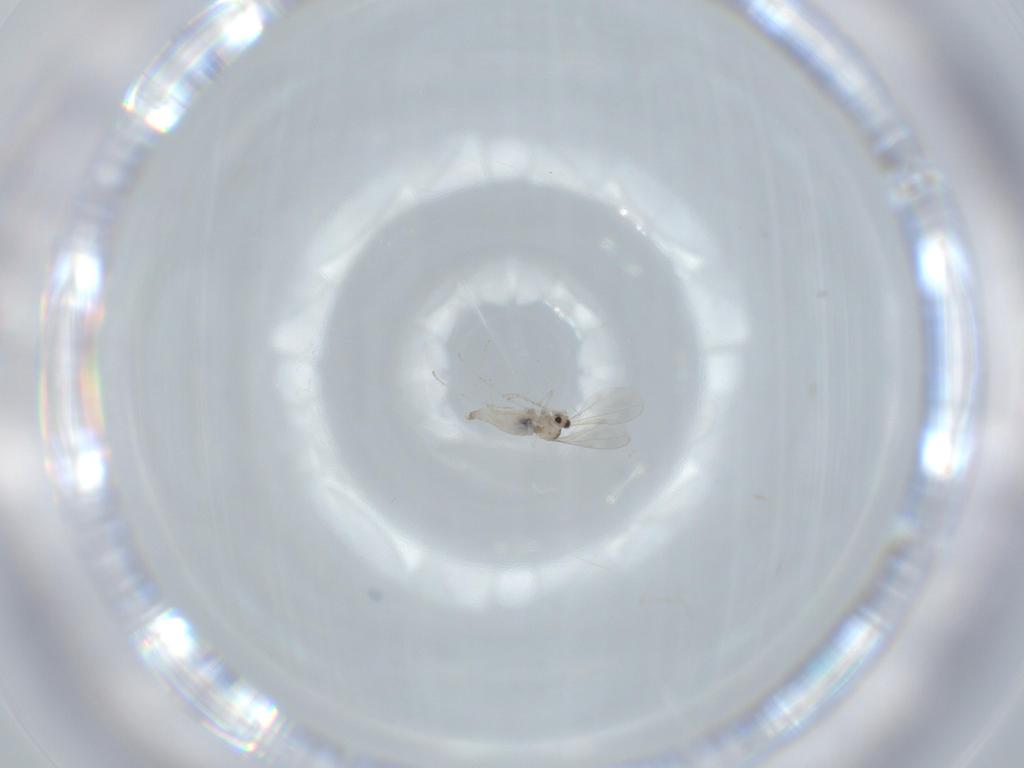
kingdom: Animalia
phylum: Arthropoda
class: Insecta
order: Diptera
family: Cecidomyiidae
